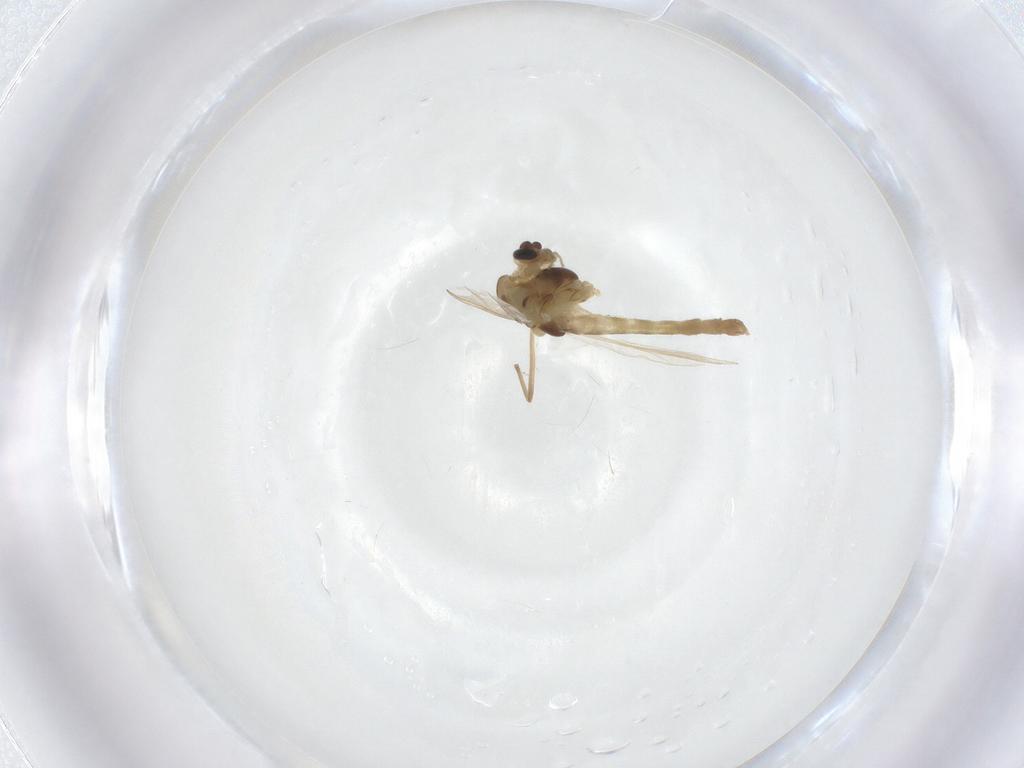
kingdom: Animalia
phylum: Arthropoda
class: Insecta
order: Diptera
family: Chironomidae
